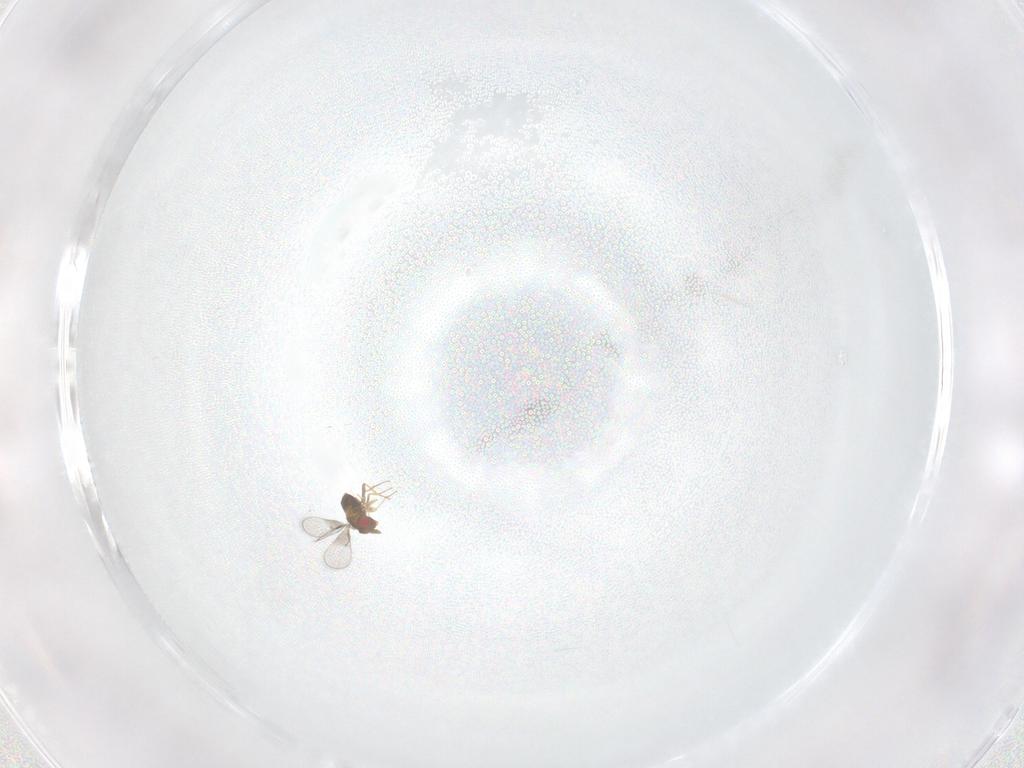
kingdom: Animalia
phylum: Arthropoda
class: Insecta
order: Hymenoptera
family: Trichogrammatidae
